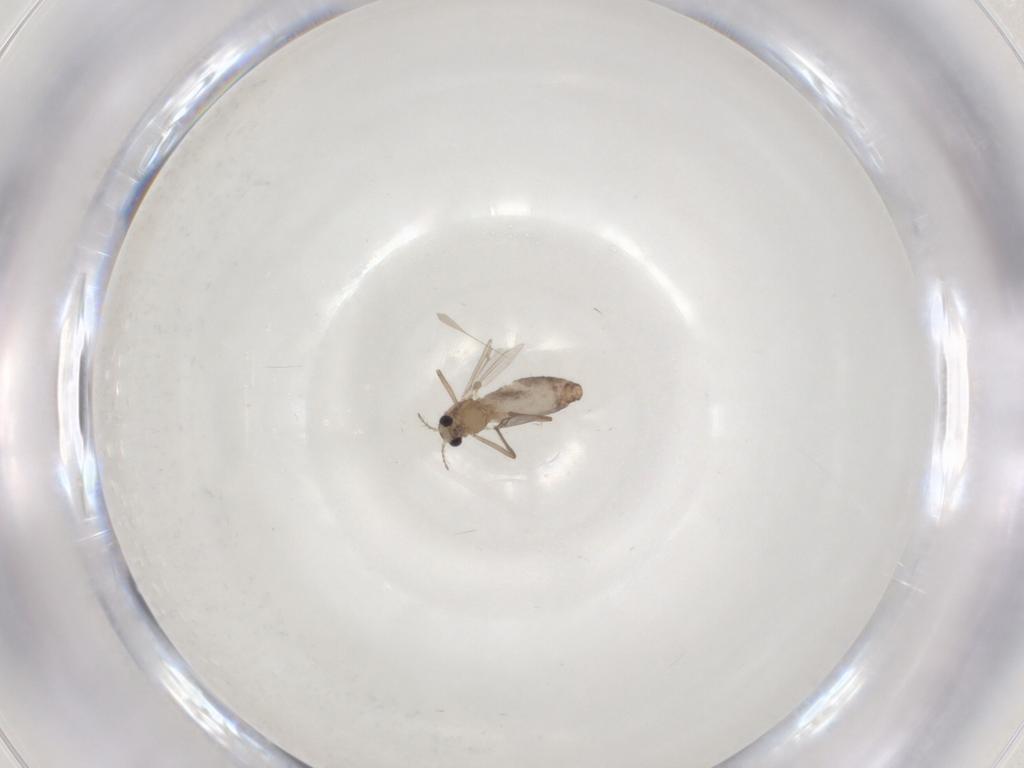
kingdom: Animalia
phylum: Arthropoda
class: Insecta
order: Diptera
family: Chironomidae
